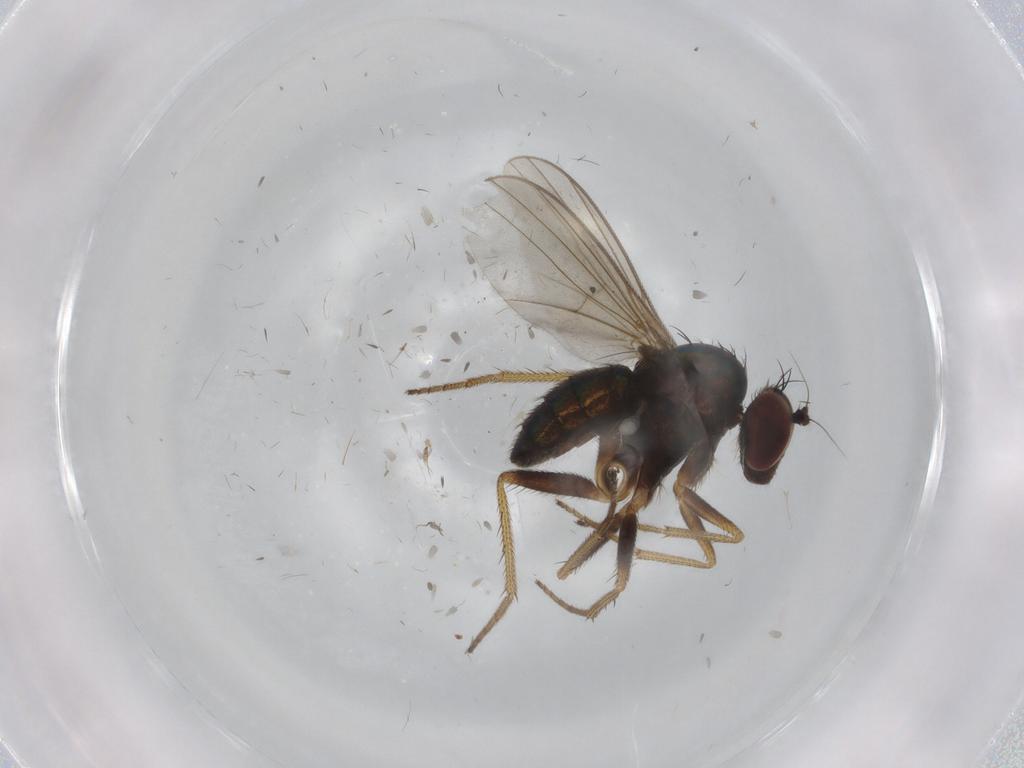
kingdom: Animalia
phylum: Arthropoda
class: Insecta
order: Diptera
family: Dolichopodidae
